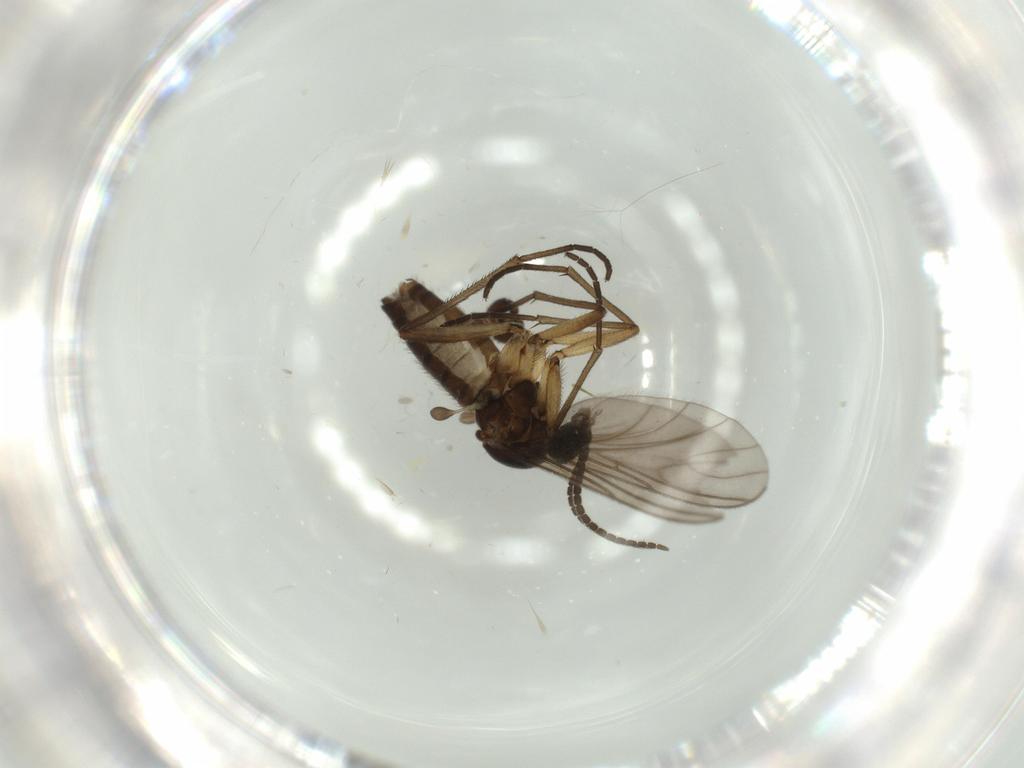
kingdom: Animalia
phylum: Arthropoda
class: Insecta
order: Diptera
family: Sciaridae
